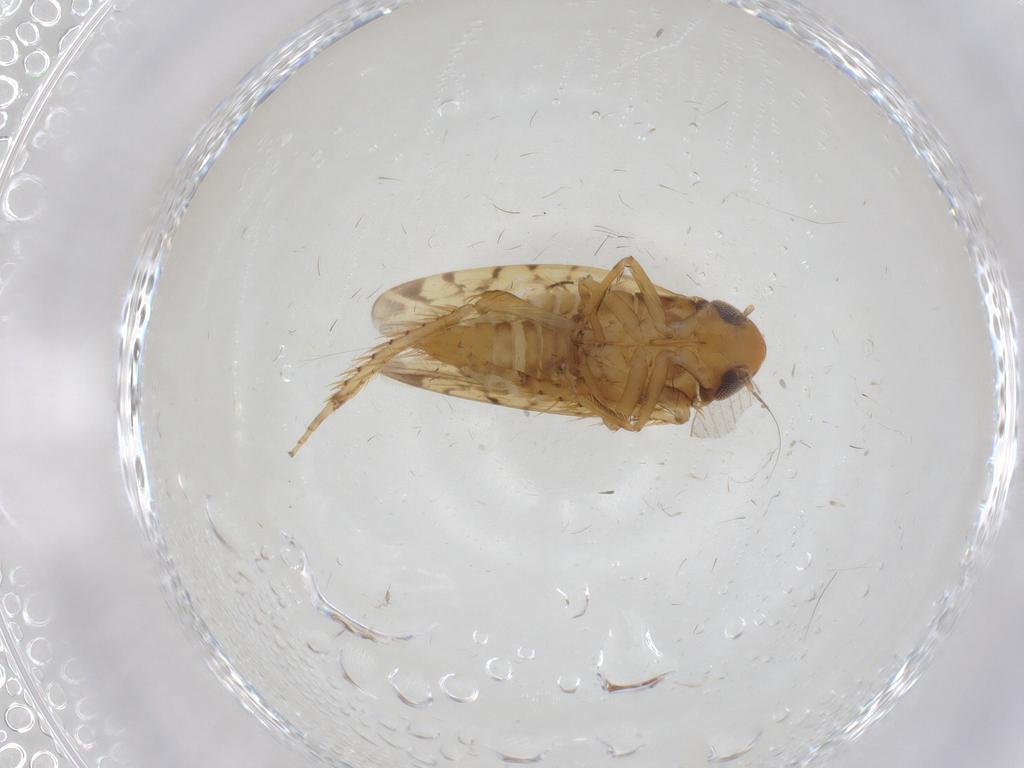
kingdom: Animalia
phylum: Arthropoda
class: Insecta
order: Hemiptera
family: Cicadellidae
